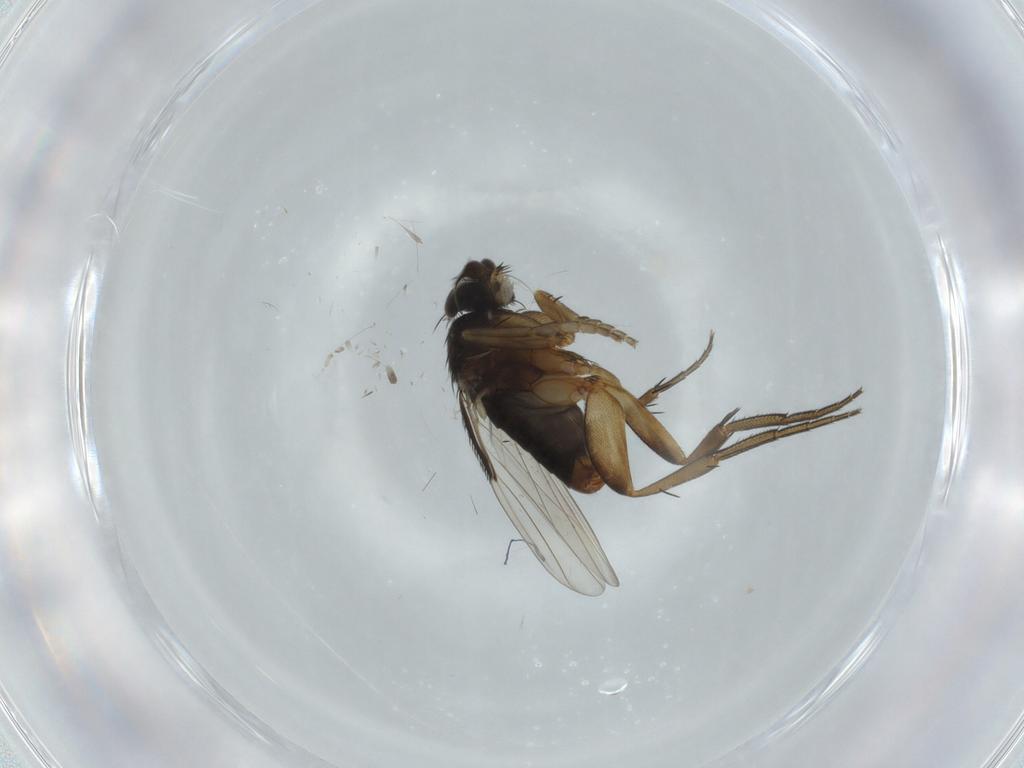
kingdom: Animalia
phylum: Arthropoda
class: Insecta
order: Diptera
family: Phoridae
